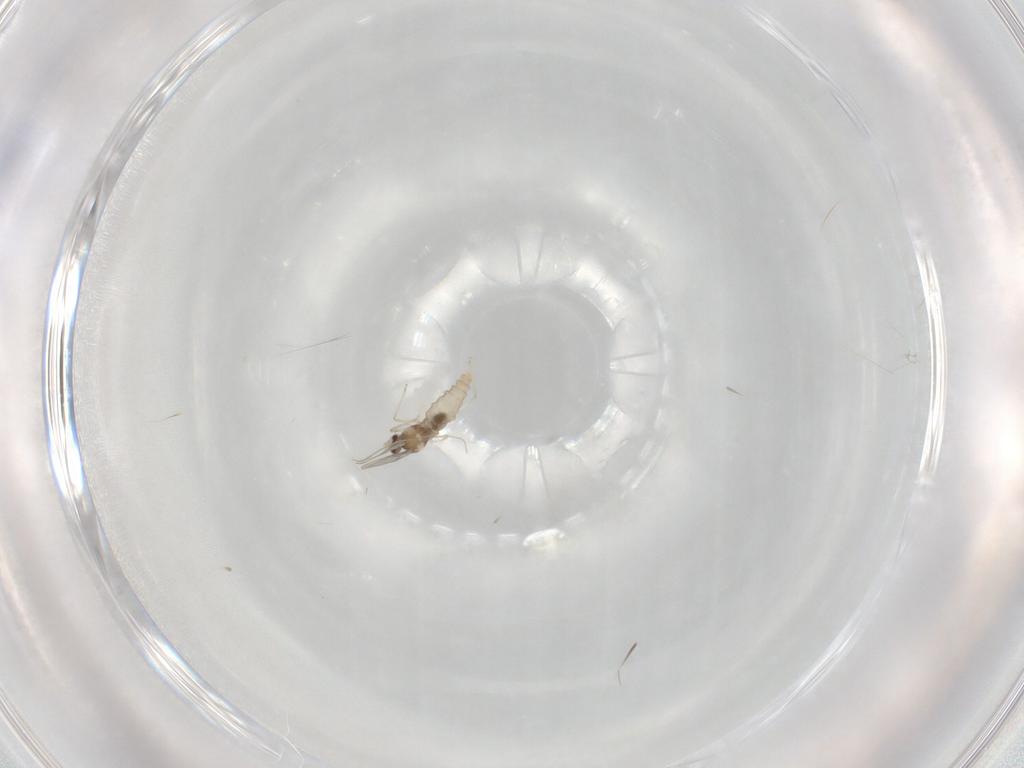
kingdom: Animalia
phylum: Arthropoda
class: Insecta
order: Diptera
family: Cecidomyiidae
